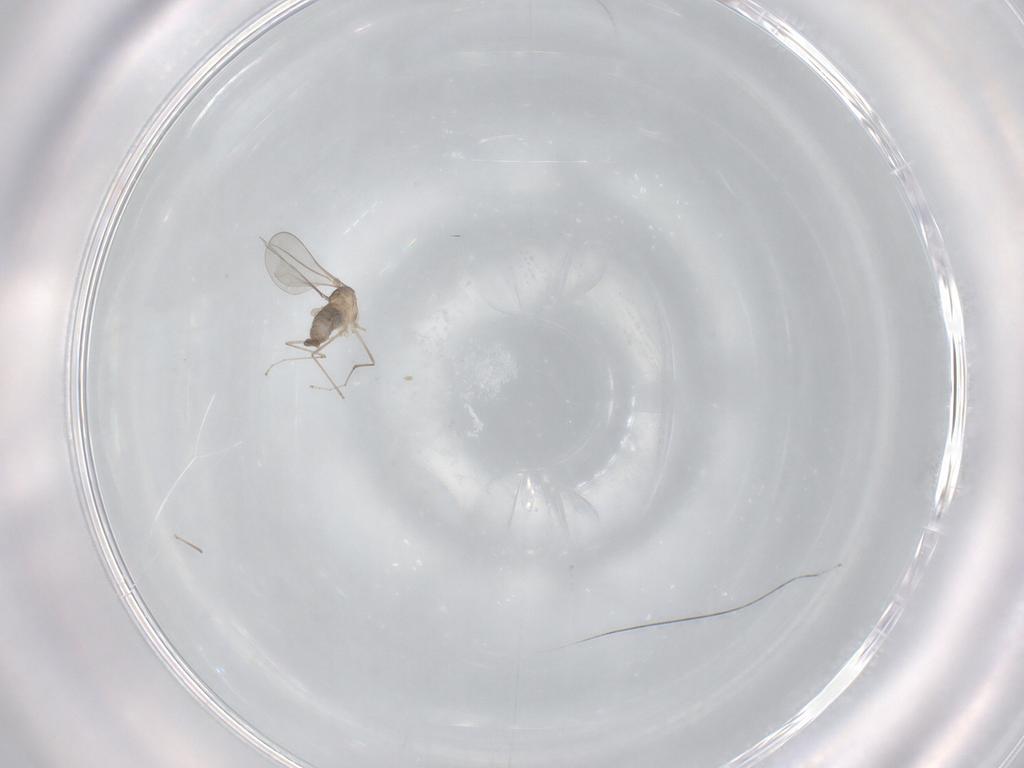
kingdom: Animalia
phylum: Arthropoda
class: Insecta
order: Diptera
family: Cecidomyiidae
